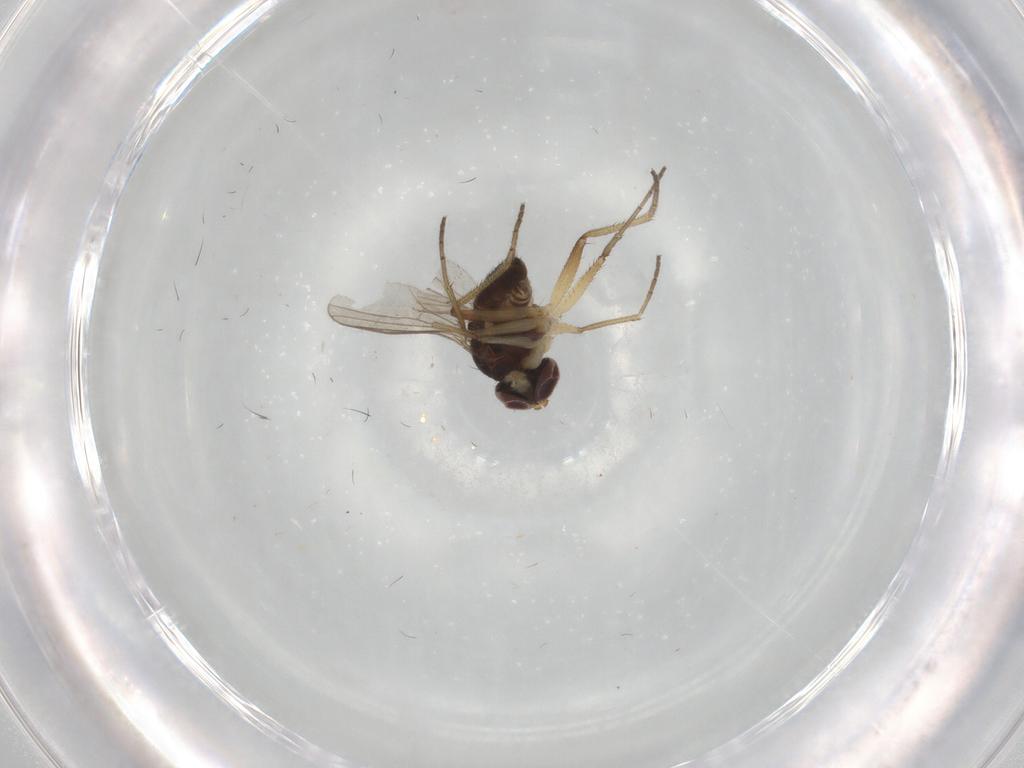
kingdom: Animalia
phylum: Arthropoda
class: Insecta
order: Diptera
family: Dolichopodidae
